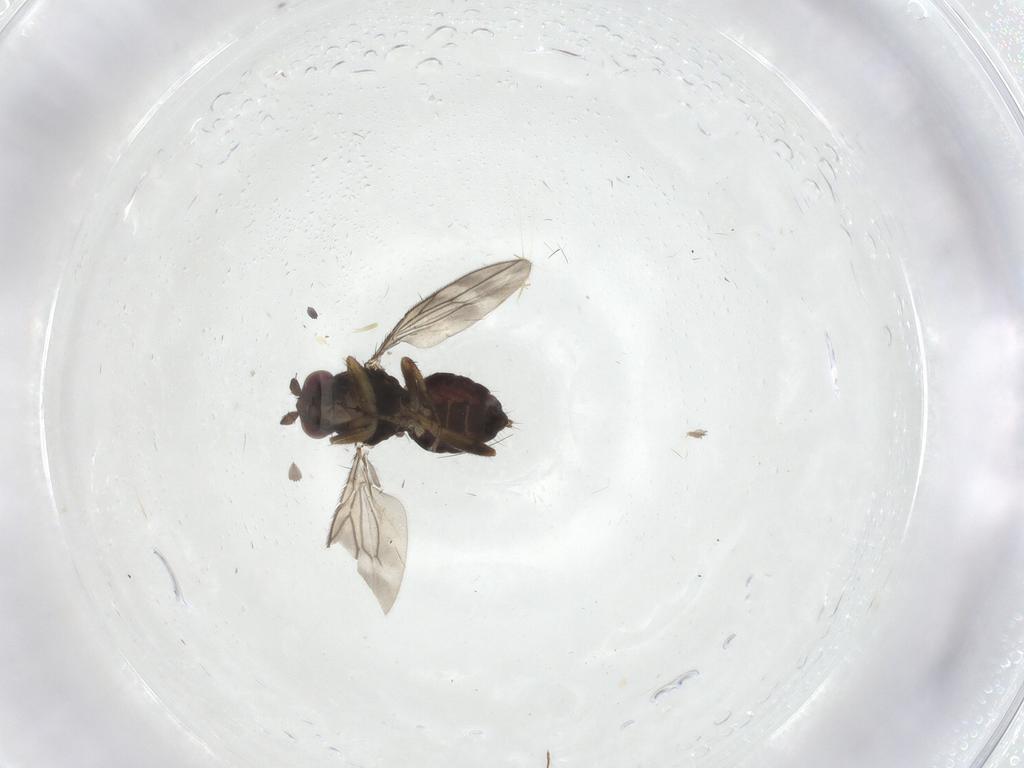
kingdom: Animalia
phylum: Arthropoda
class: Insecta
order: Diptera
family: Sphaeroceridae
